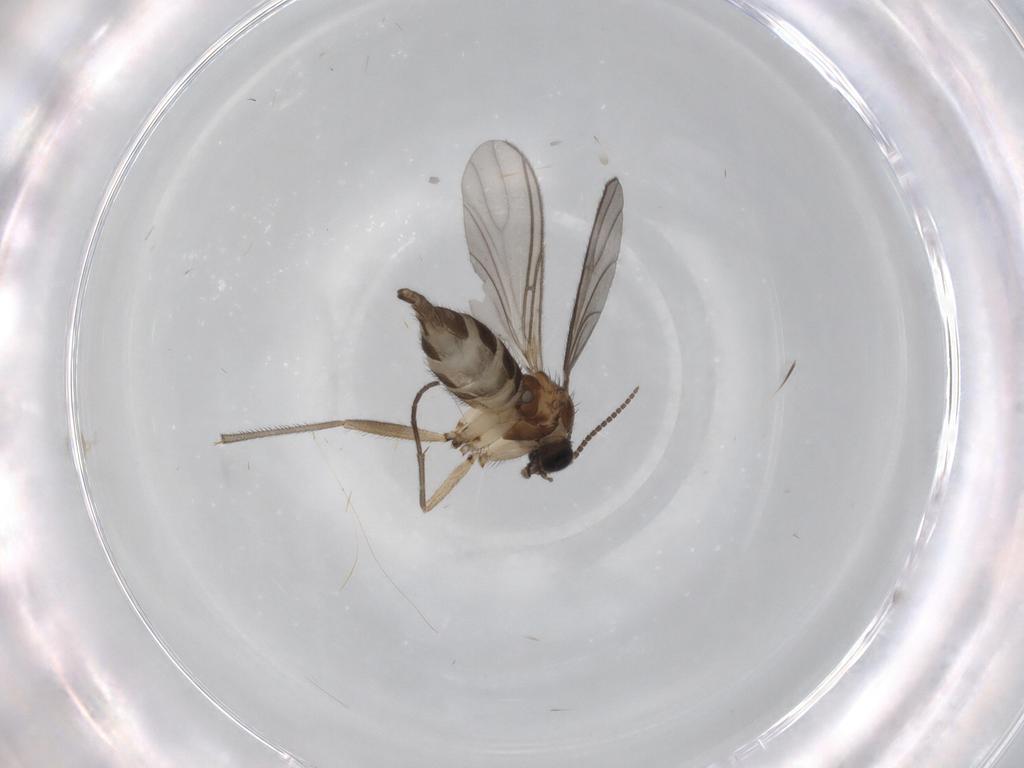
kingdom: Animalia
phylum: Arthropoda
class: Insecta
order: Diptera
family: Sciaridae
